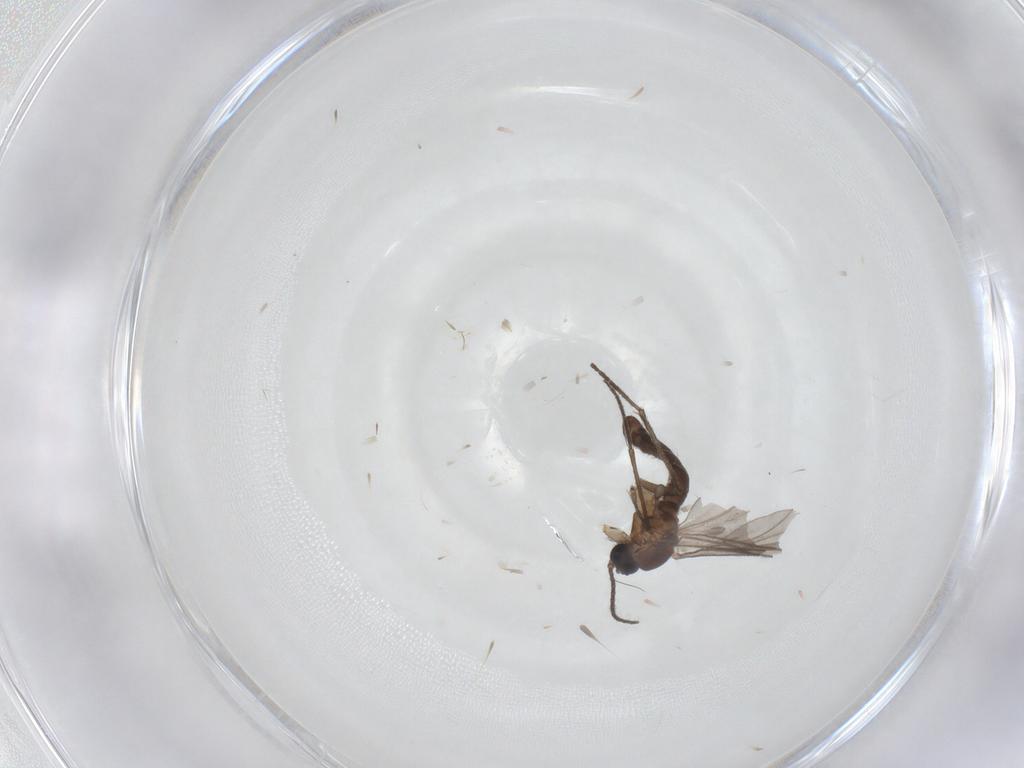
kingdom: Animalia
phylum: Arthropoda
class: Insecta
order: Diptera
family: Sciaridae
